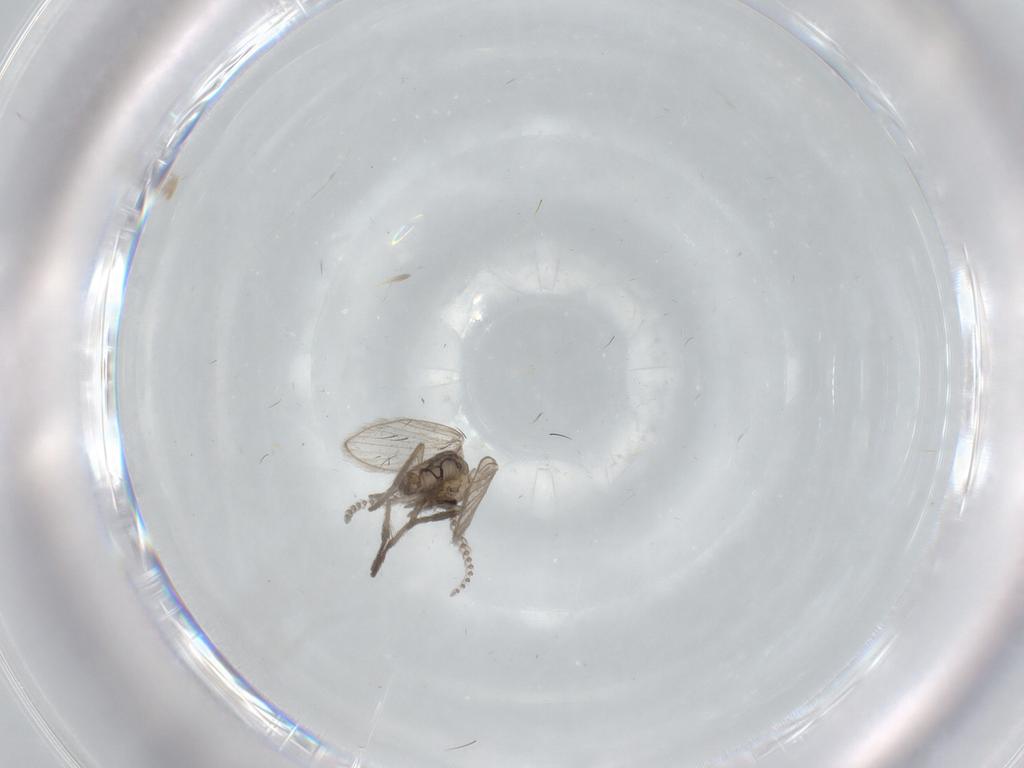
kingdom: Animalia
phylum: Arthropoda
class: Insecta
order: Diptera
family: Psychodidae
